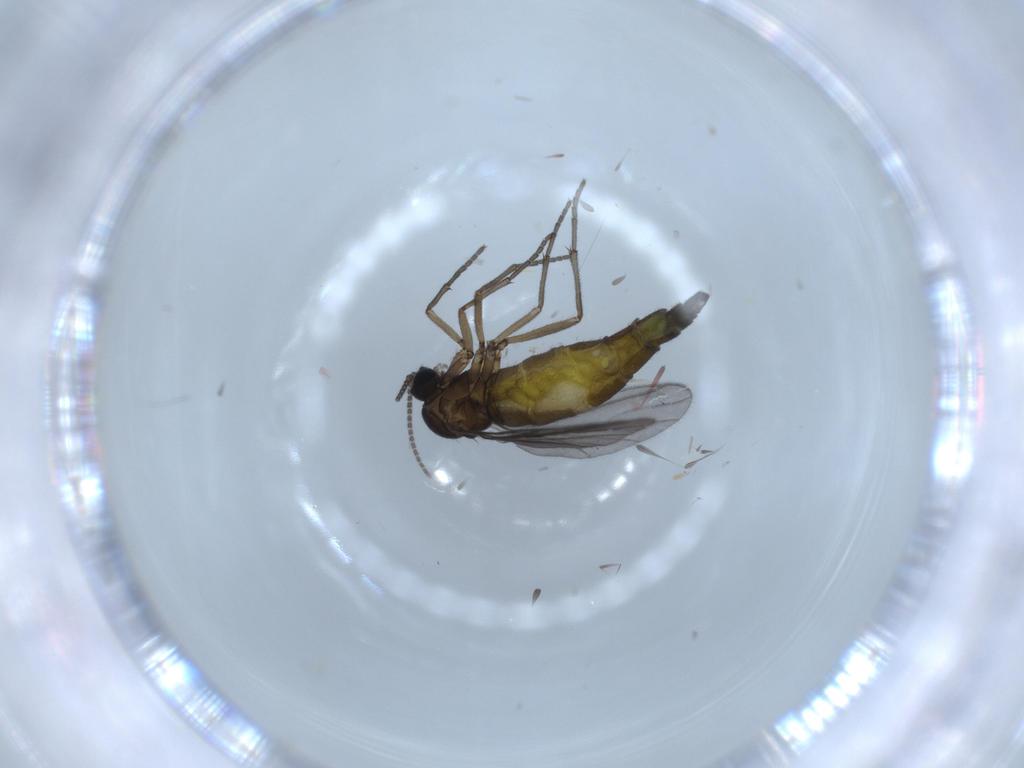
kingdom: Animalia
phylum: Arthropoda
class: Insecta
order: Diptera
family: Sciaridae
